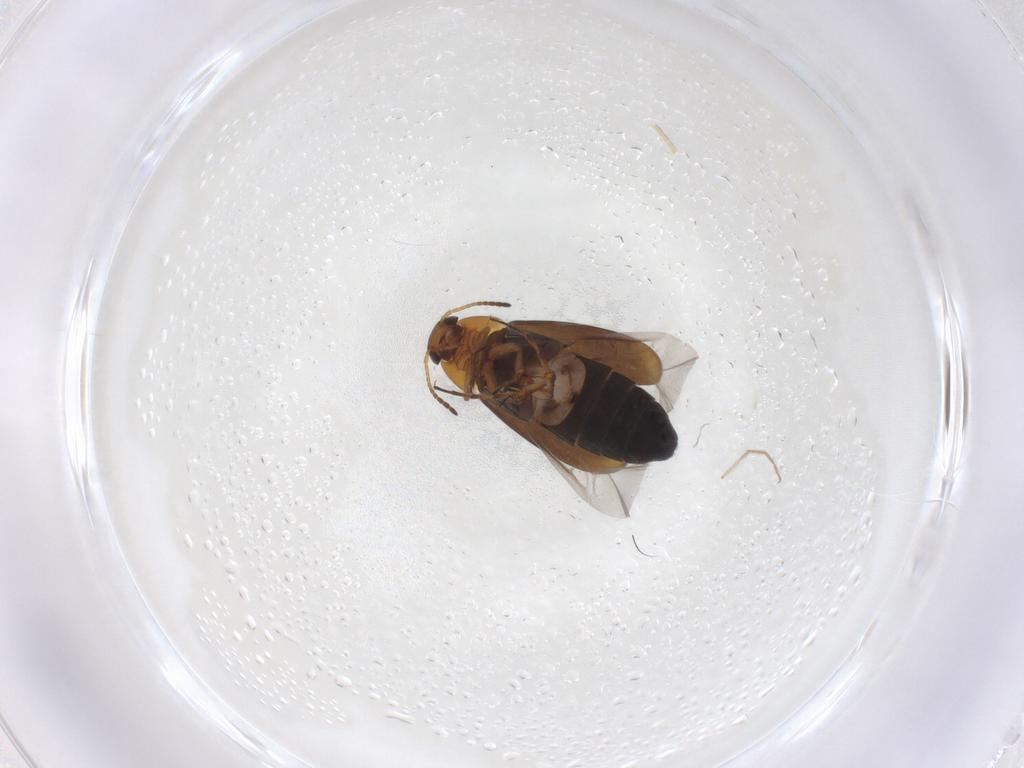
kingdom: Animalia
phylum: Arthropoda
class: Insecta
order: Coleoptera
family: Scraptiidae
